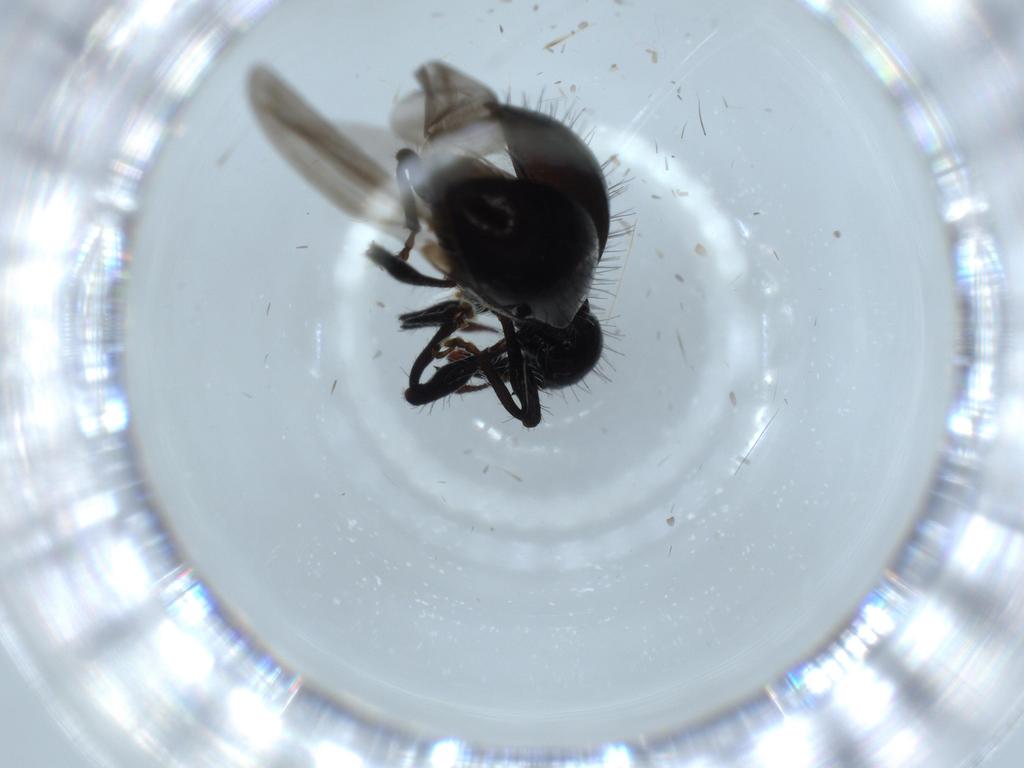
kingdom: Animalia
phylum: Arthropoda
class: Insecta
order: Coleoptera
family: Curculionidae
